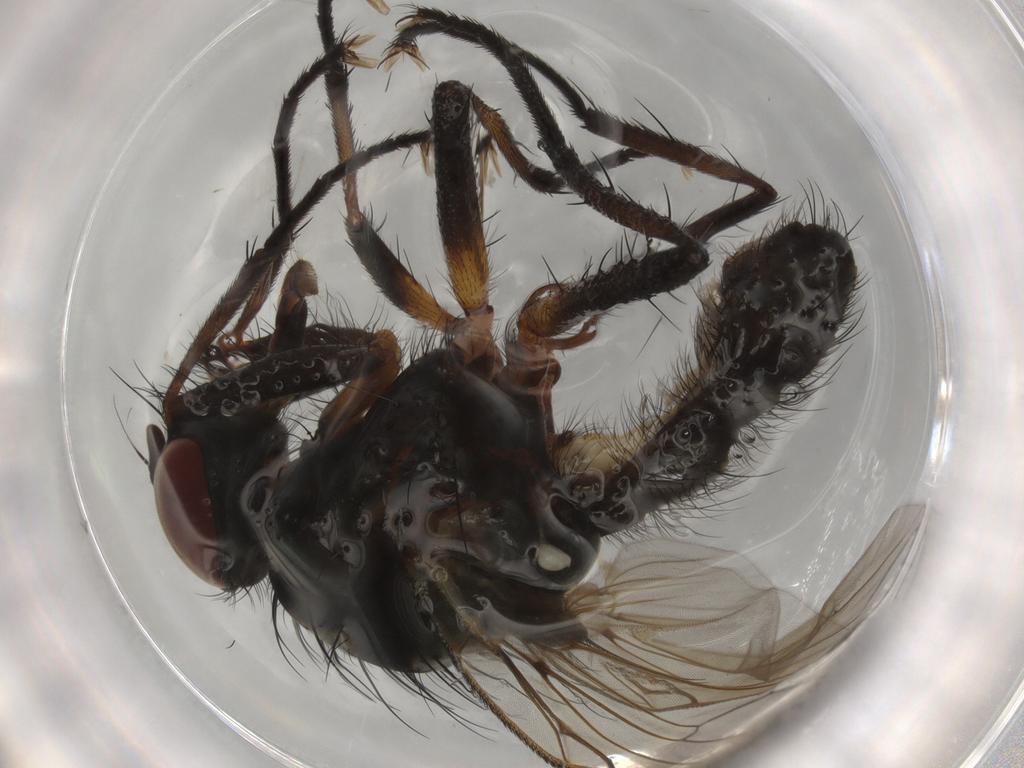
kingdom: Animalia
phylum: Arthropoda
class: Insecta
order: Diptera
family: Anthomyiidae
